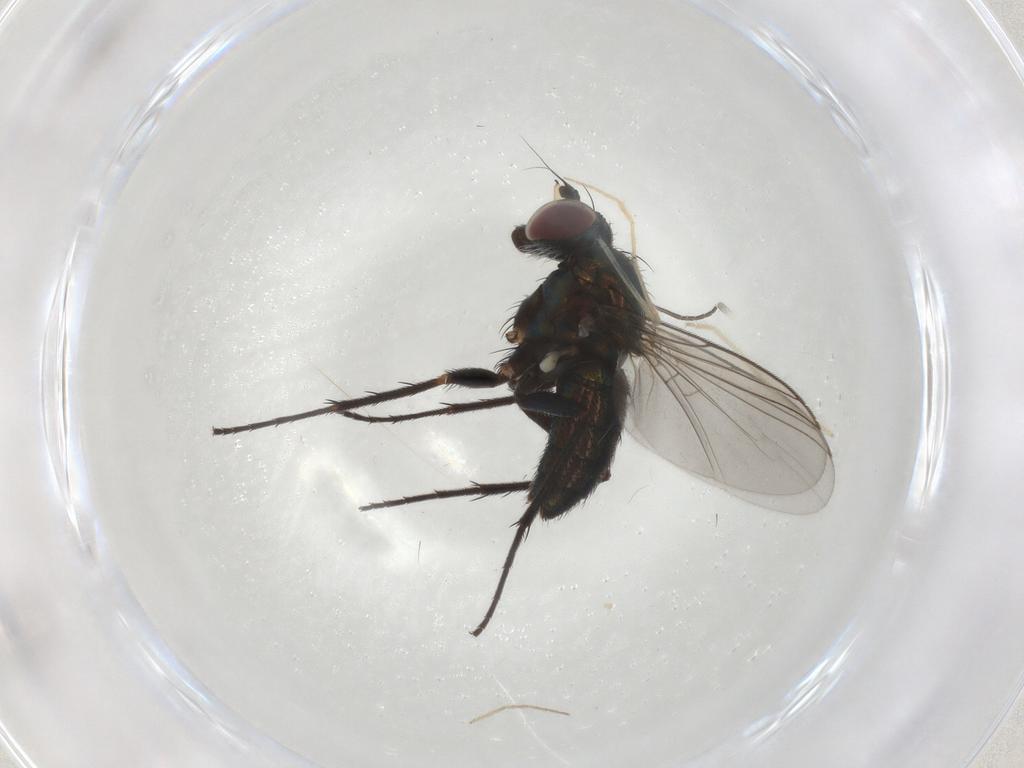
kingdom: Animalia
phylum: Arthropoda
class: Insecta
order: Diptera
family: Dolichopodidae
